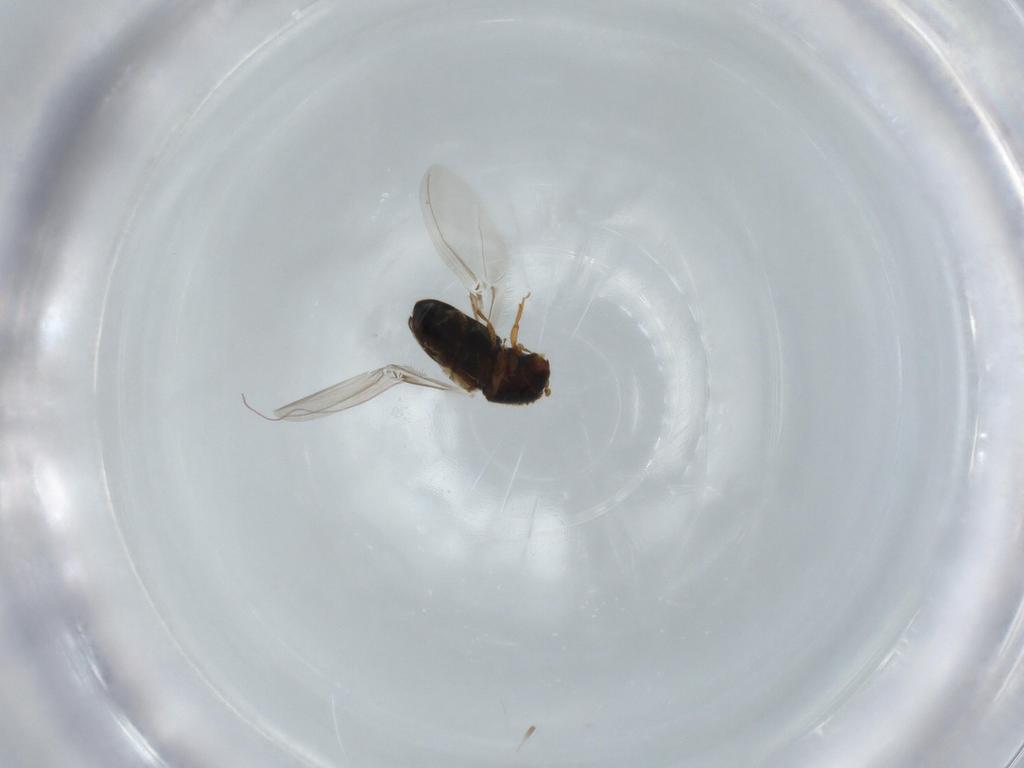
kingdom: Animalia
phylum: Arthropoda
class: Insecta
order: Coleoptera
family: Curculionidae
